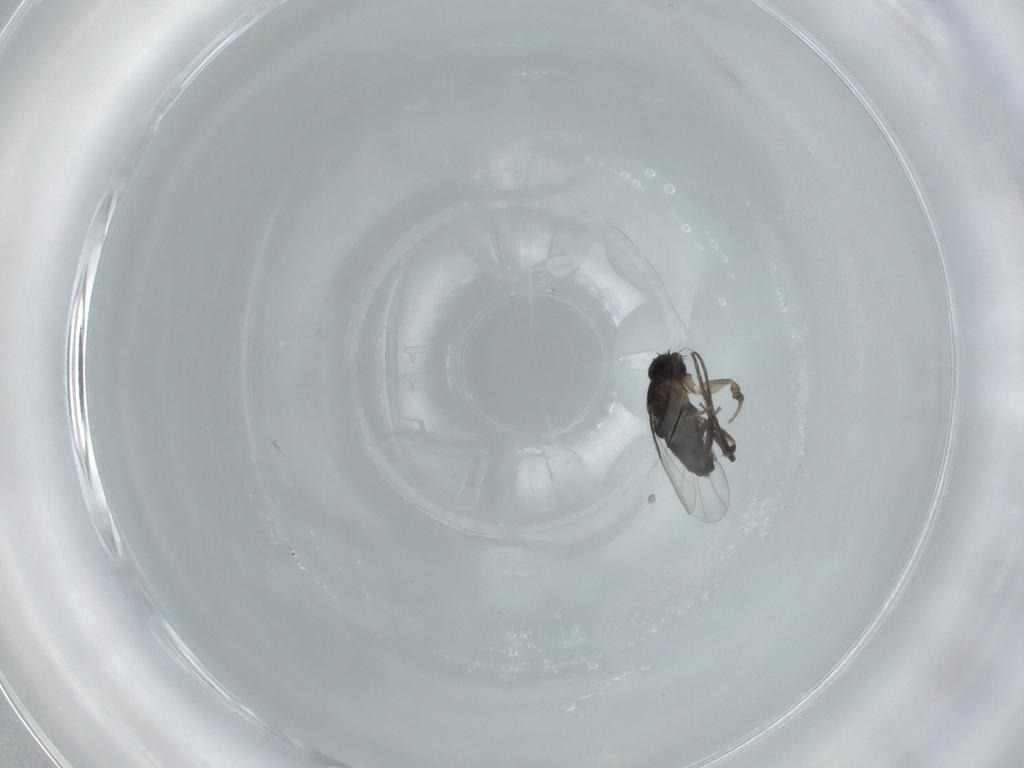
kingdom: Animalia
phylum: Arthropoda
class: Insecta
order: Diptera
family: Phoridae
